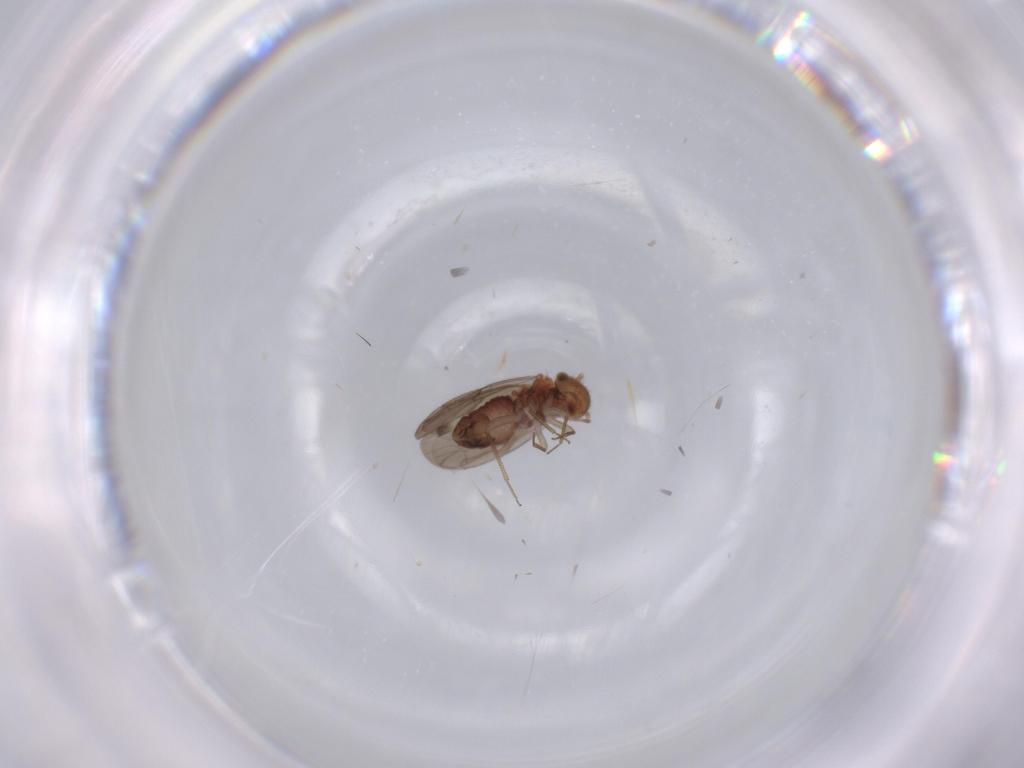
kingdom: Animalia
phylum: Arthropoda
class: Insecta
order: Psocodea
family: Ectopsocidae
